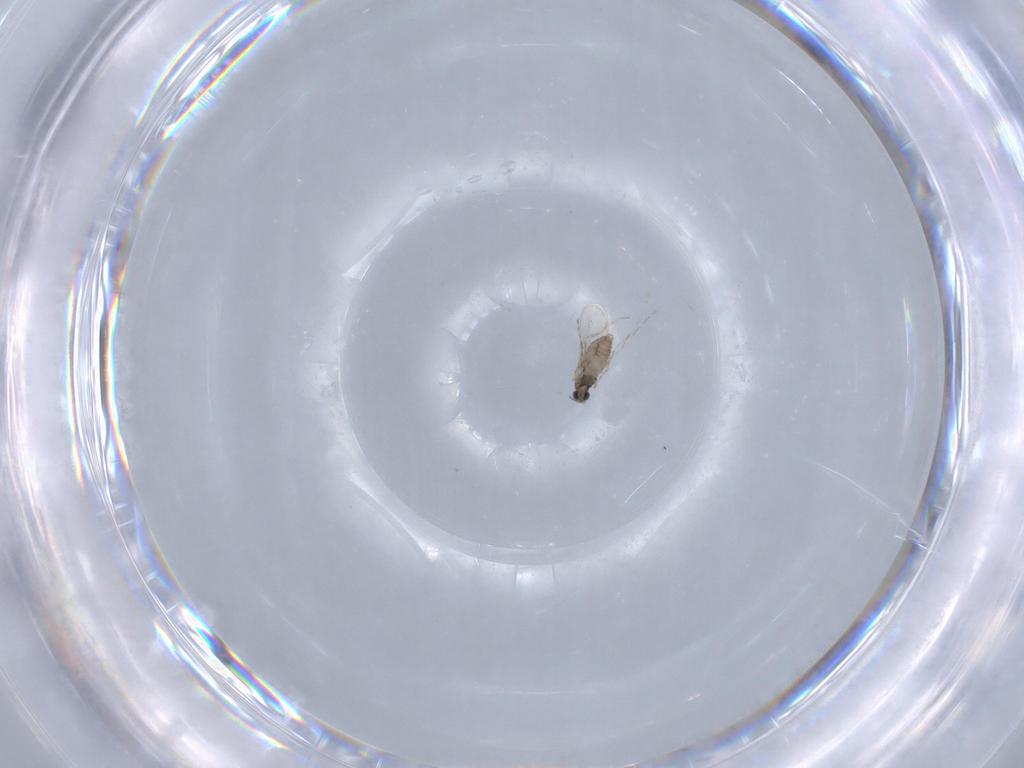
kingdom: Animalia
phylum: Arthropoda
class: Insecta
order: Diptera
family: Cecidomyiidae
